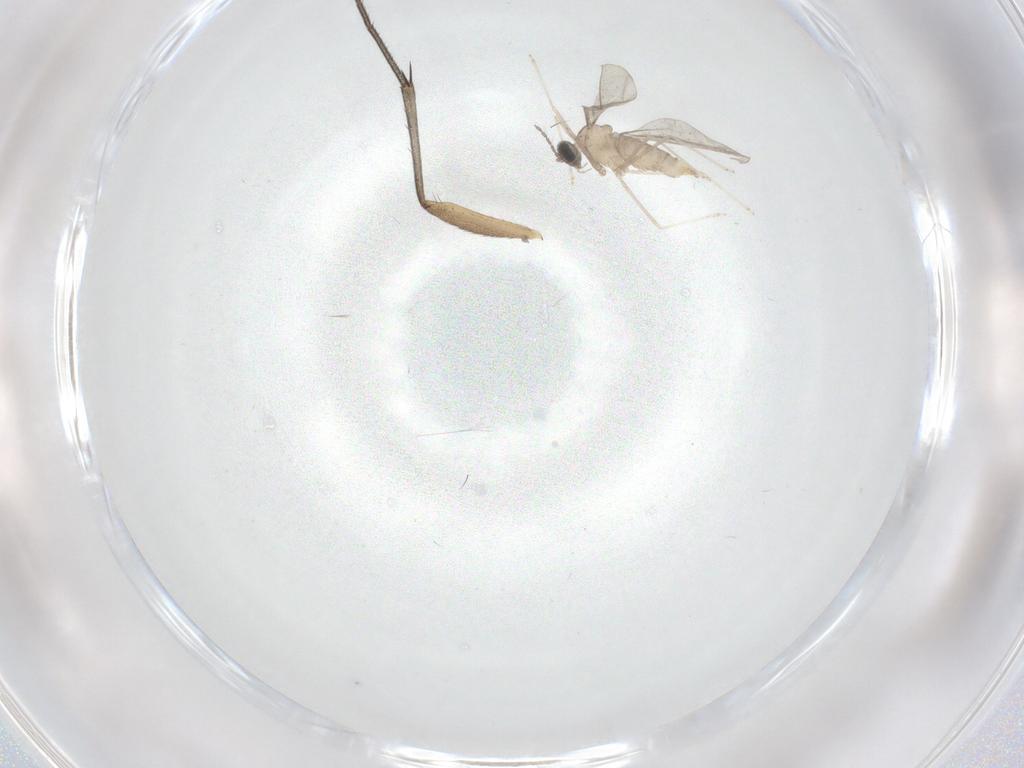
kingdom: Animalia
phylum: Arthropoda
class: Insecta
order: Diptera
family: Cecidomyiidae
